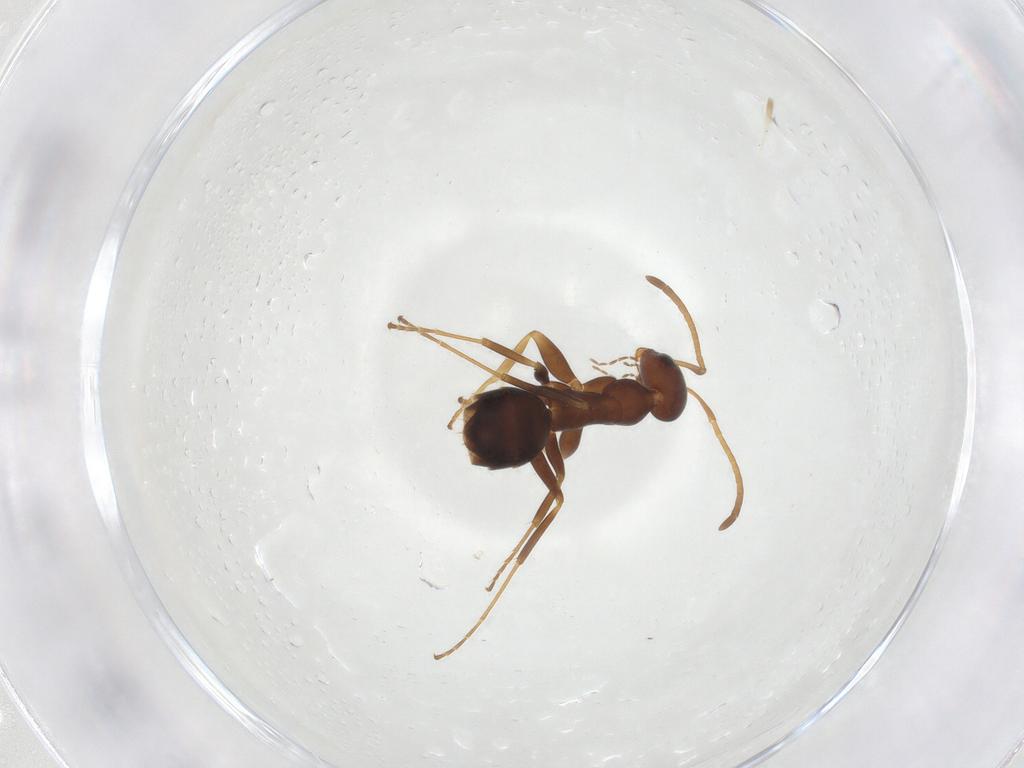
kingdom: Animalia
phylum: Arthropoda
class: Insecta
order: Hymenoptera
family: Formicidae
